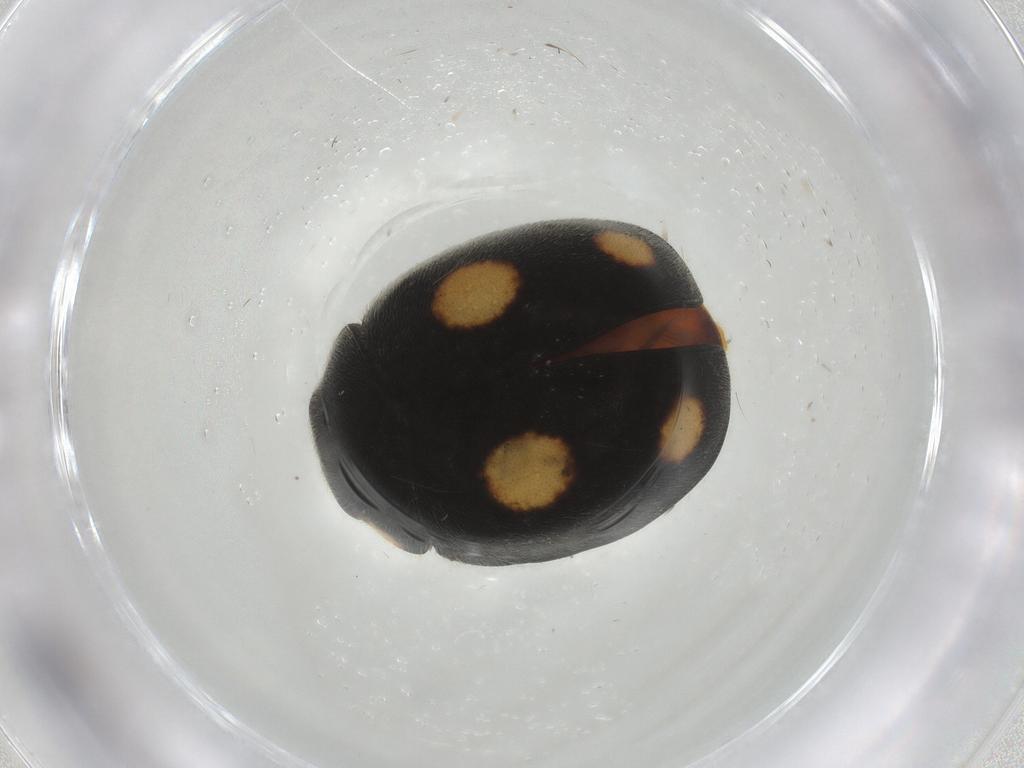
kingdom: Animalia
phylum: Arthropoda
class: Insecta
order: Coleoptera
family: Coccinellidae
